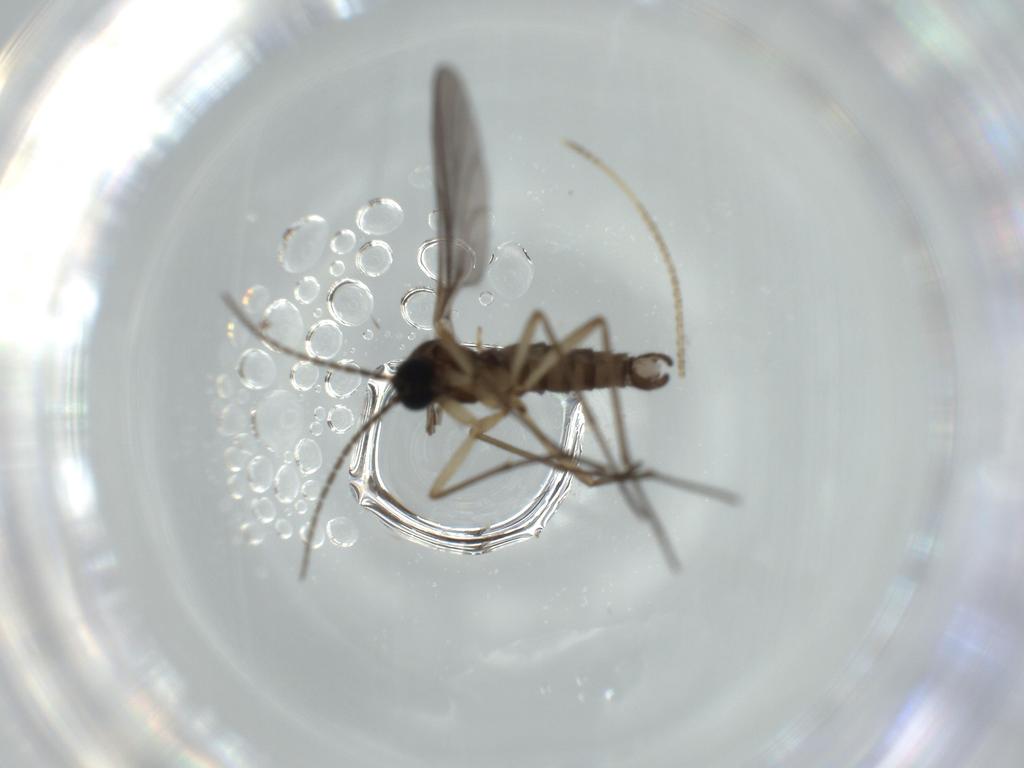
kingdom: Animalia
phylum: Arthropoda
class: Insecta
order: Diptera
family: Sciaridae
